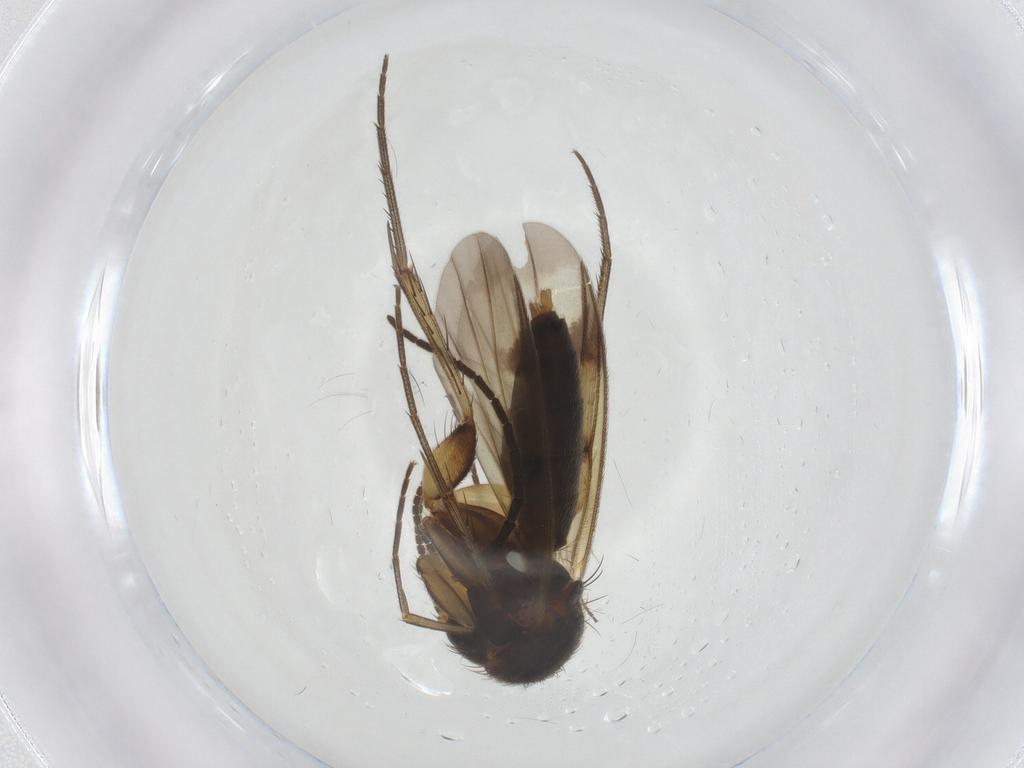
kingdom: Animalia
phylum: Arthropoda
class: Insecta
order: Diptera
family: Mycetophilidae
